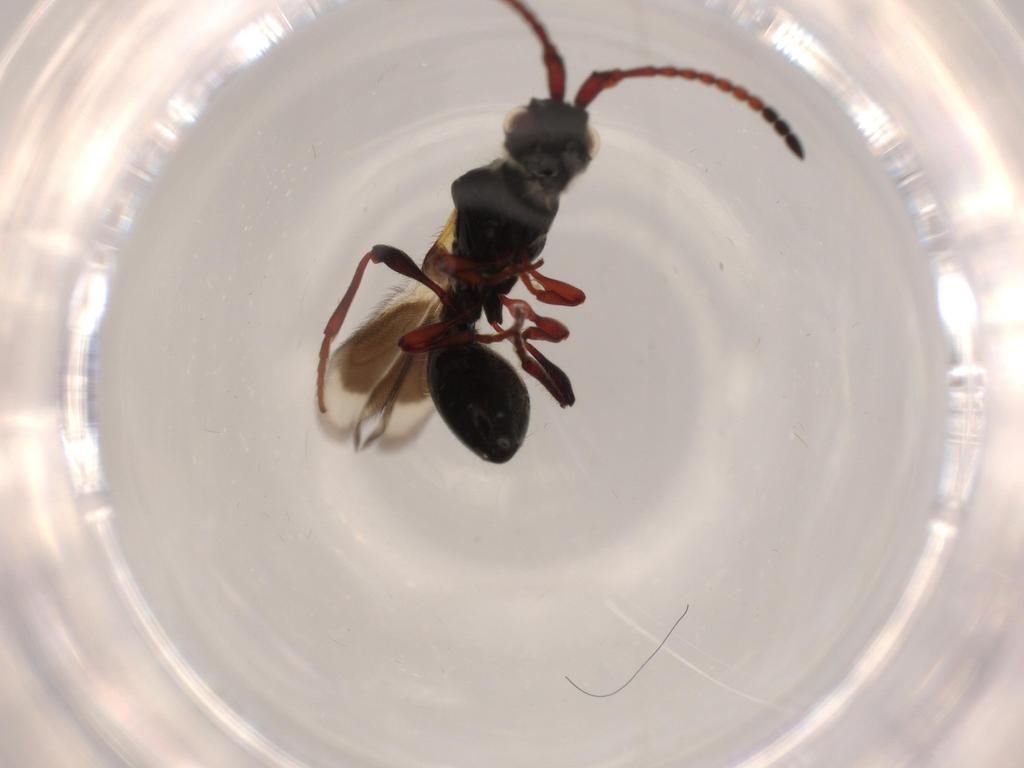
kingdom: Animalia
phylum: Arthropoda
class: Insecta
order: Hymenoptera
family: Diapriidae
